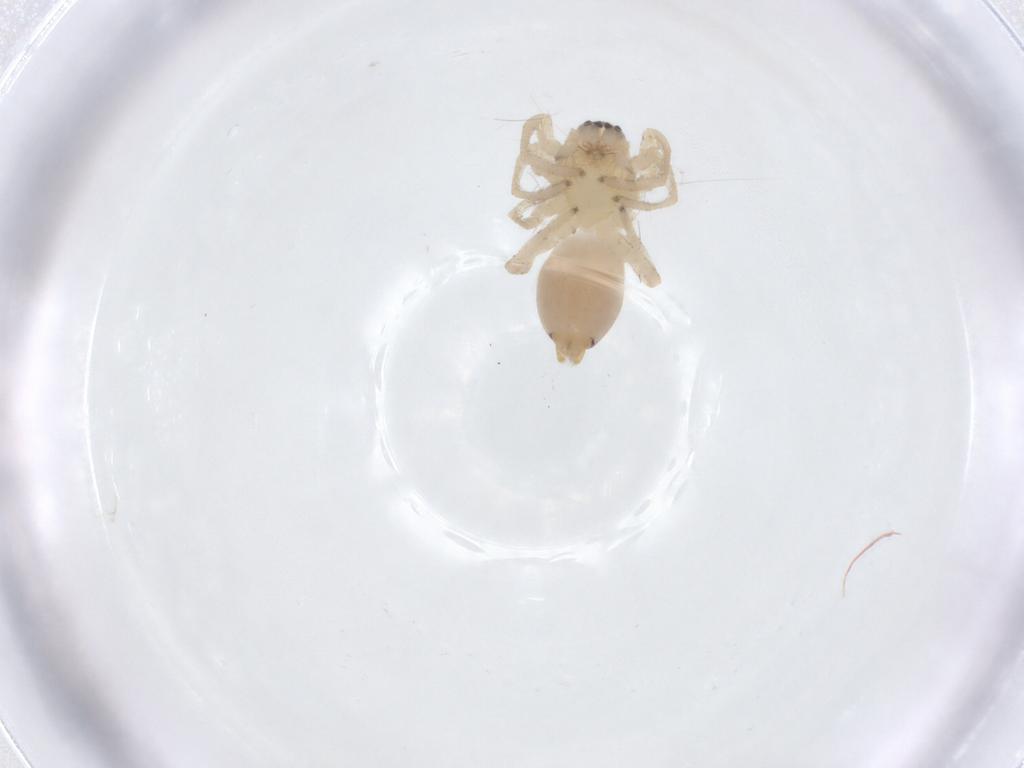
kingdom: Animalia
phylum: Arthropoda
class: Arachnida
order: Araneae
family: Clubionidae
